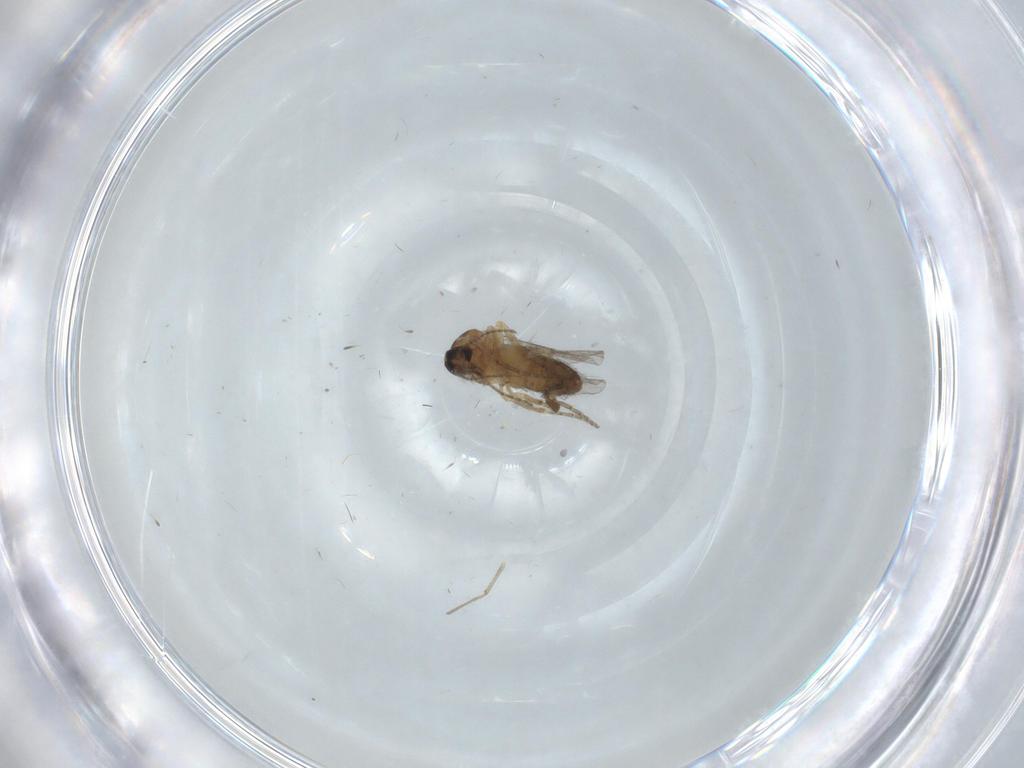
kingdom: Animalia
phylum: Arthropoda
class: Insecta
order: Diptera
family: Ceratopogonidae
